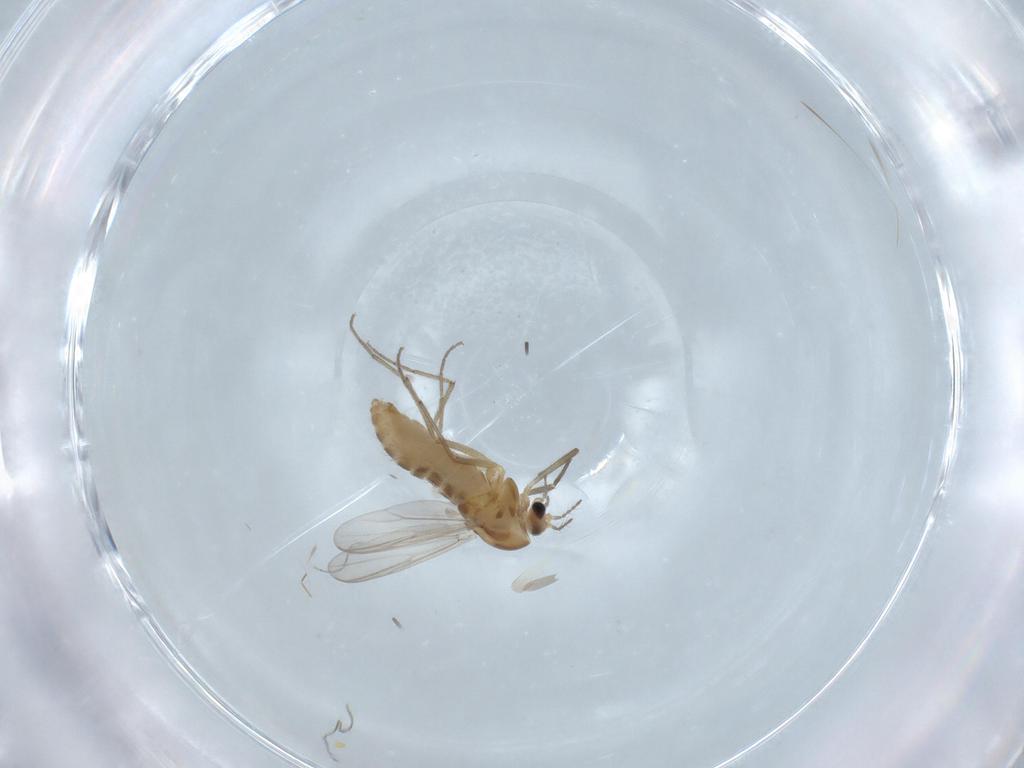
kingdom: Animalia
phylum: Arthropoda
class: Insecta
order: Diptera
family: Chironomidae
